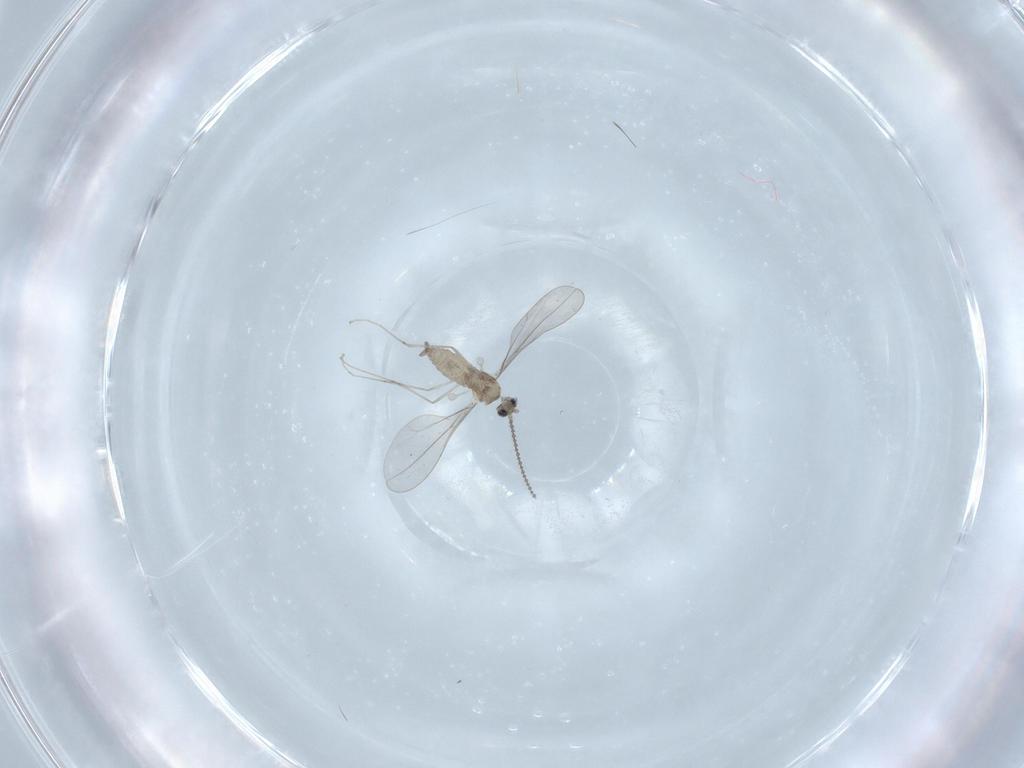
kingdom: Animalia
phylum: Arthropoda
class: Insecta
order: Diptera
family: Cecidomyiidae
